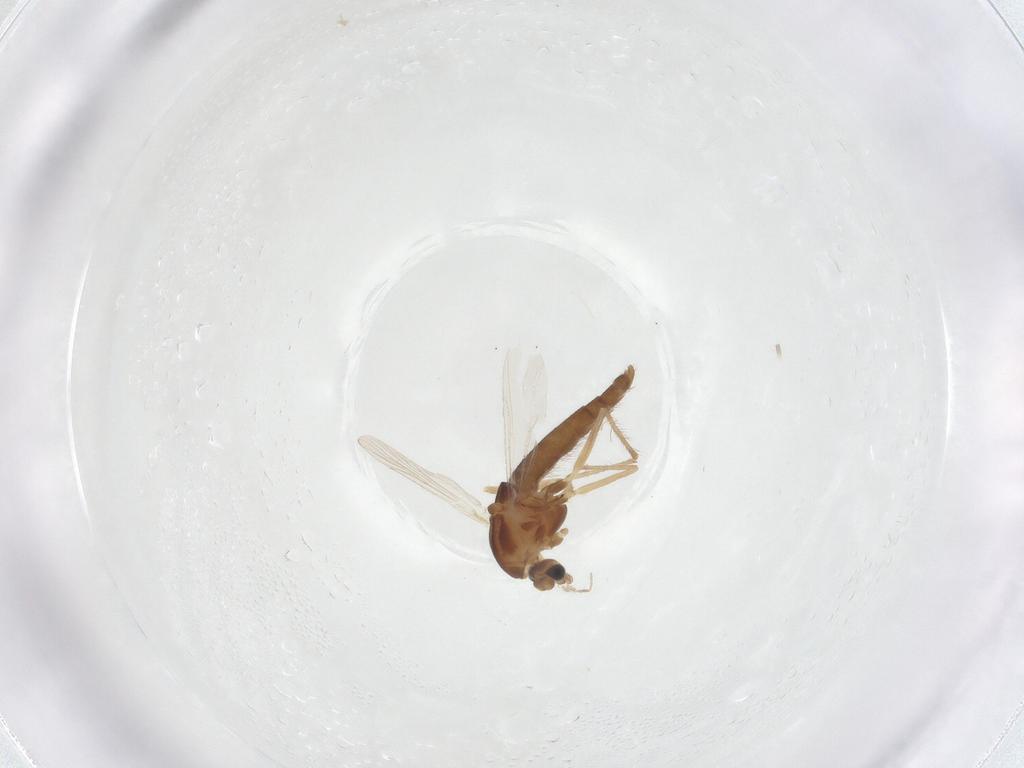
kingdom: Animalia
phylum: Arthropoda
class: Insecta
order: Diptera
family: Chironomidae
